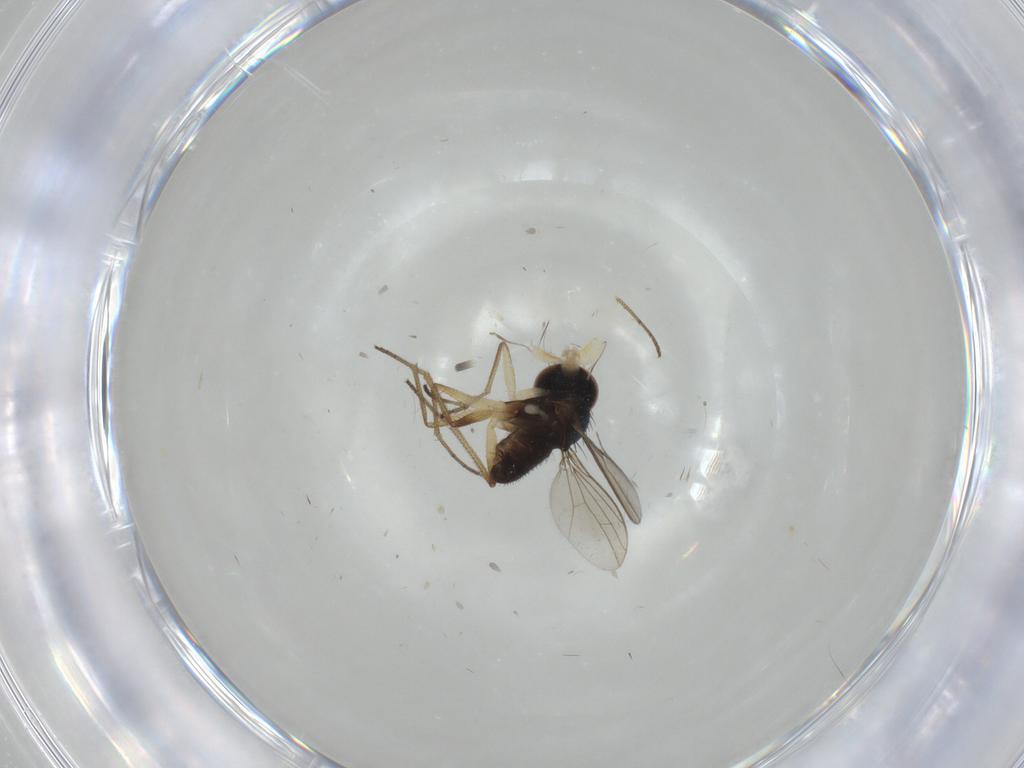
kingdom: Animalia
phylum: Arthropoda
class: Insecta
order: Diptera
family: Dolichopodidae
